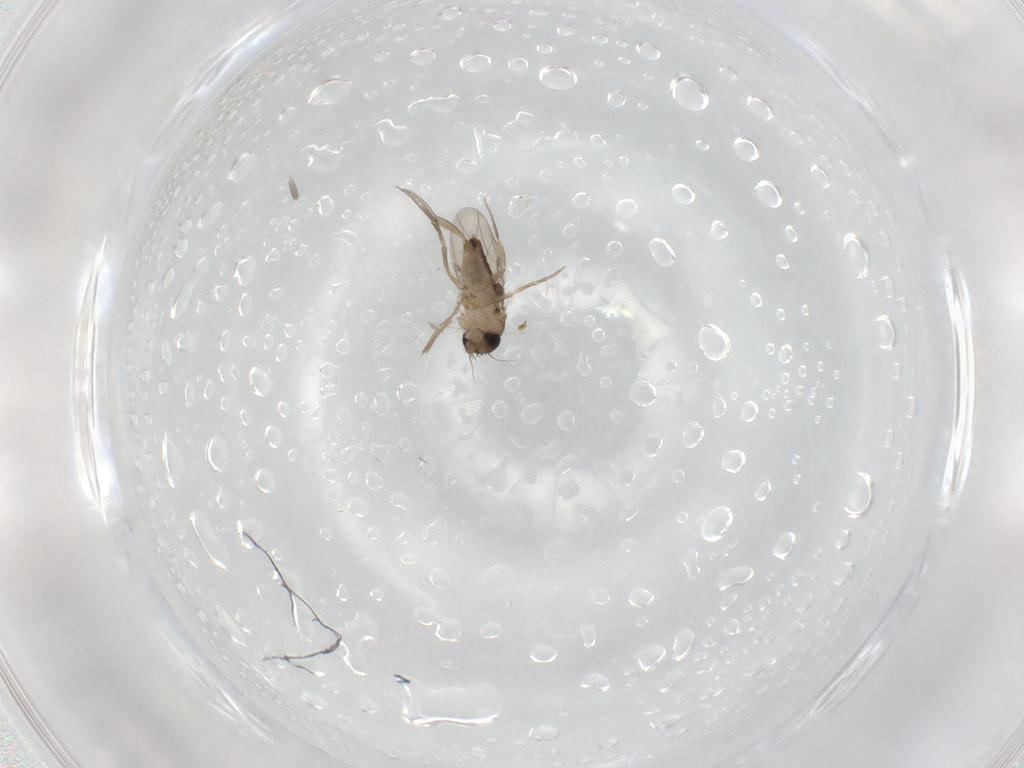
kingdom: Animalia
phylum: Arthropoda
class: Insecta
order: Diptera
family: Phoridae
